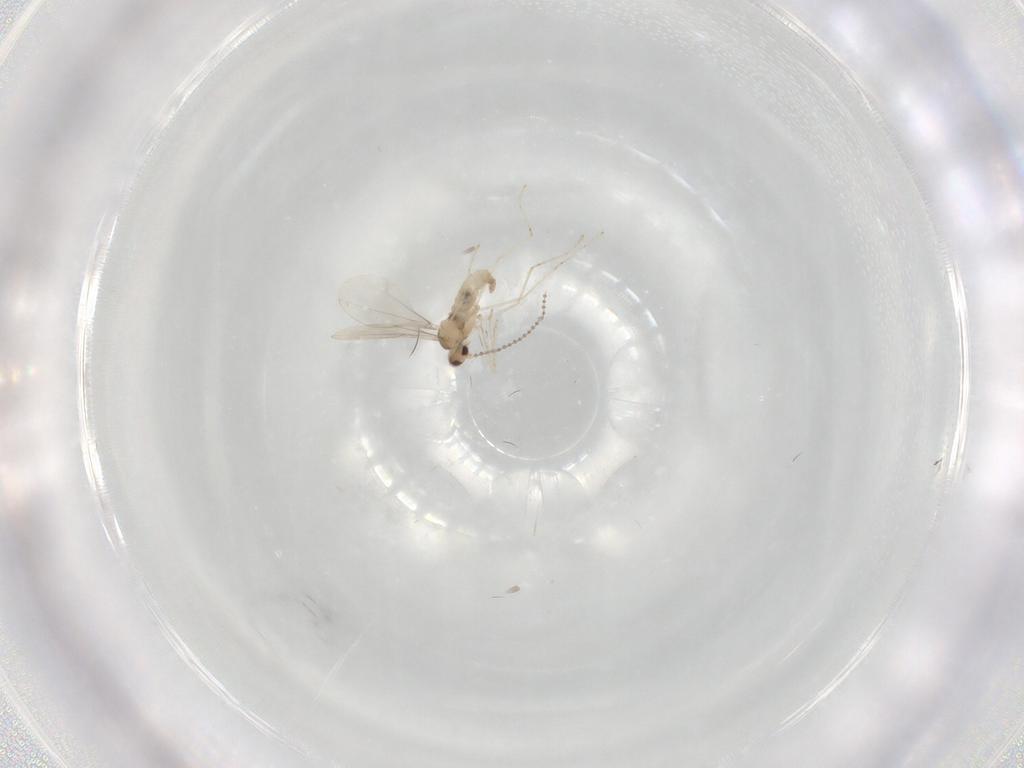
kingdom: Animalia
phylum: Arthropoda
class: Insecta
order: Diptera
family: Cecidomyiidae
